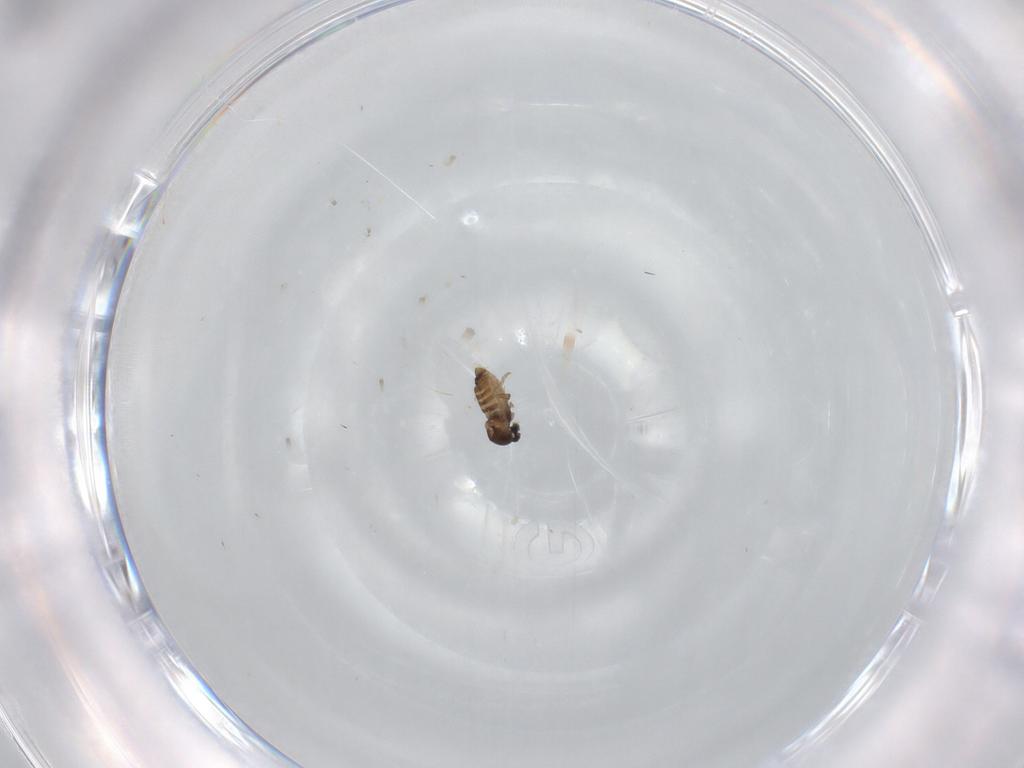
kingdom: Animalia
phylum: Arthropoda
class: Insecta
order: Diptera
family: Cecidomyiidae
